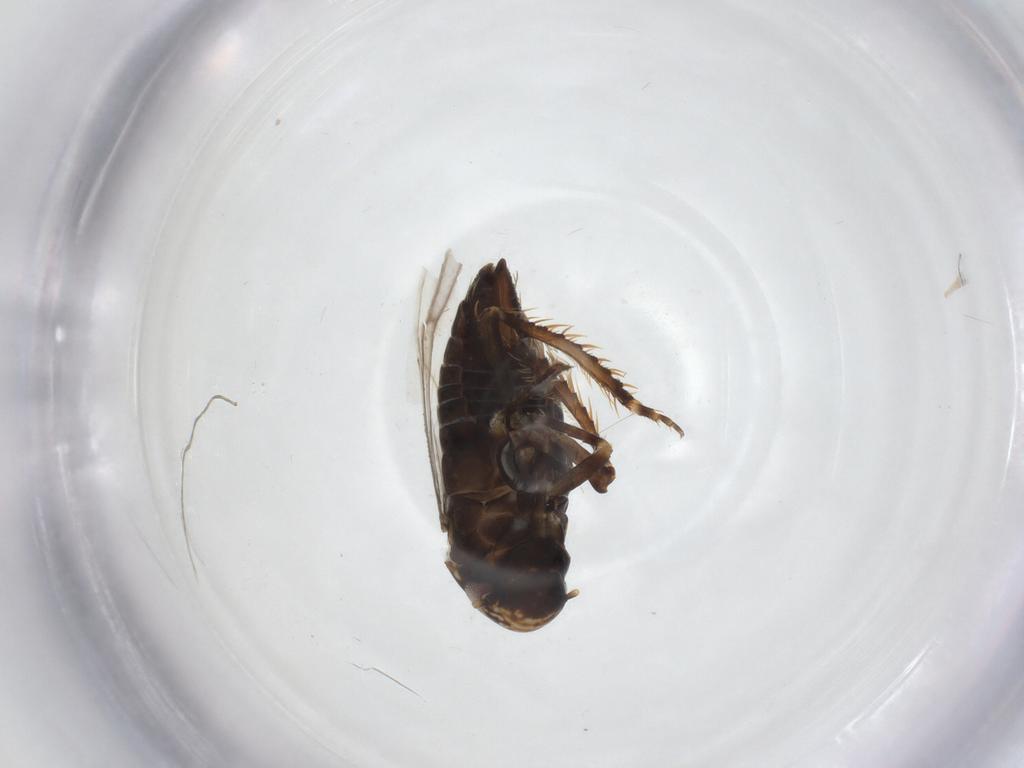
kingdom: Animalia
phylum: Arthropoda
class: Insecta
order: Hemiptera
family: Cicadellidae
